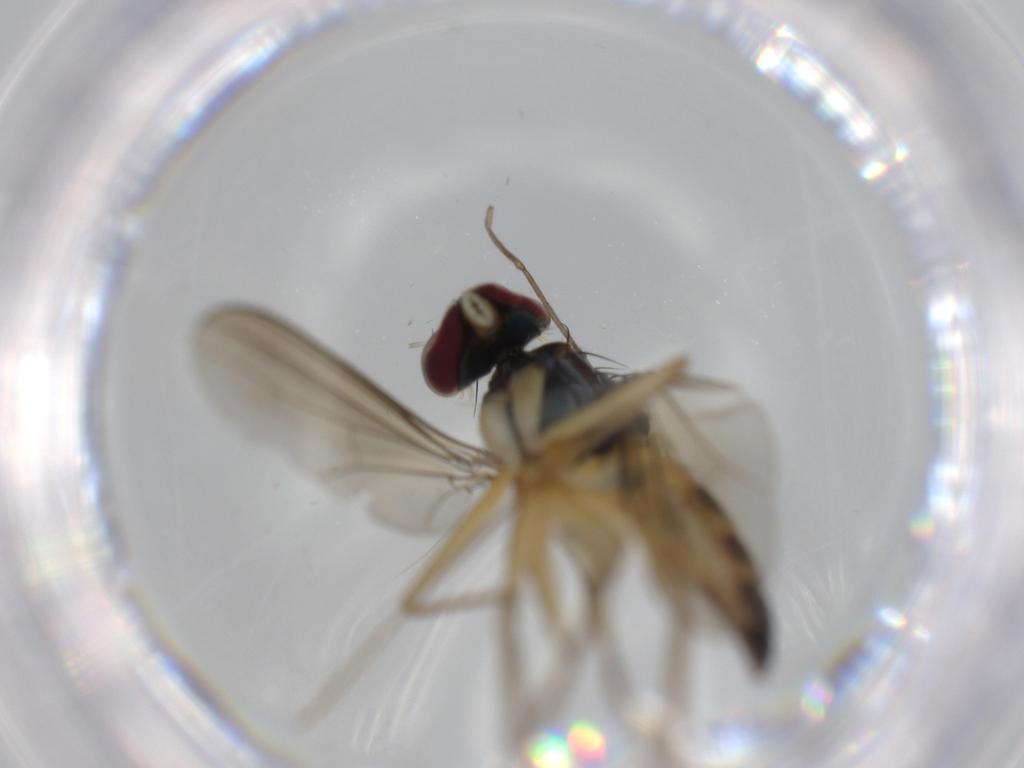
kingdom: Animalia
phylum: Arthropoda
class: Insecta
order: Diptera
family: Dolichopodidae
